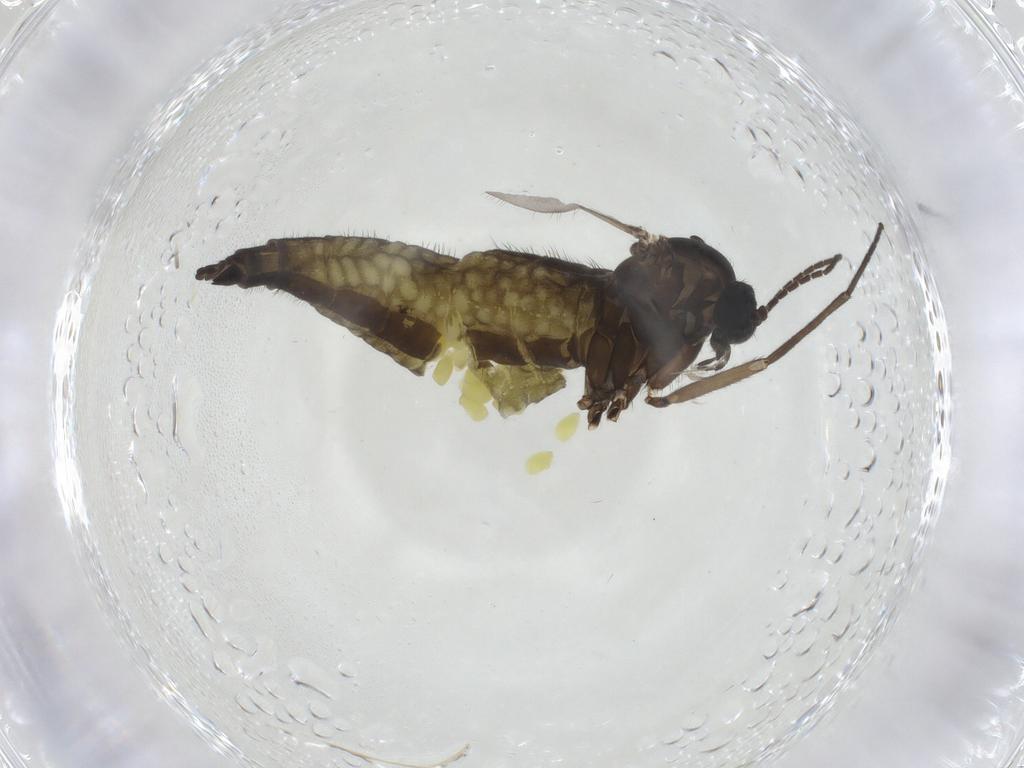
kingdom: Animalia
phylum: Arthropoda
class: Insecta
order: Diptera
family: Sciaridae
